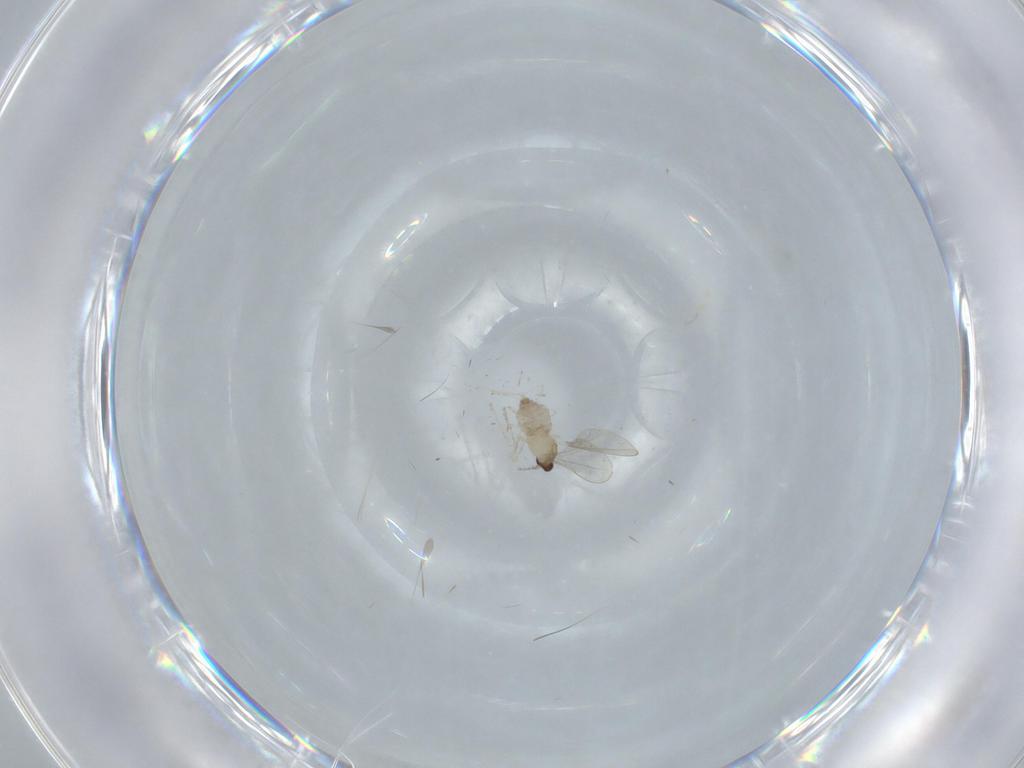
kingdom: Animalia
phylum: Arthropoda
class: Insecta
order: Diptera
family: Cecidomyiidae
